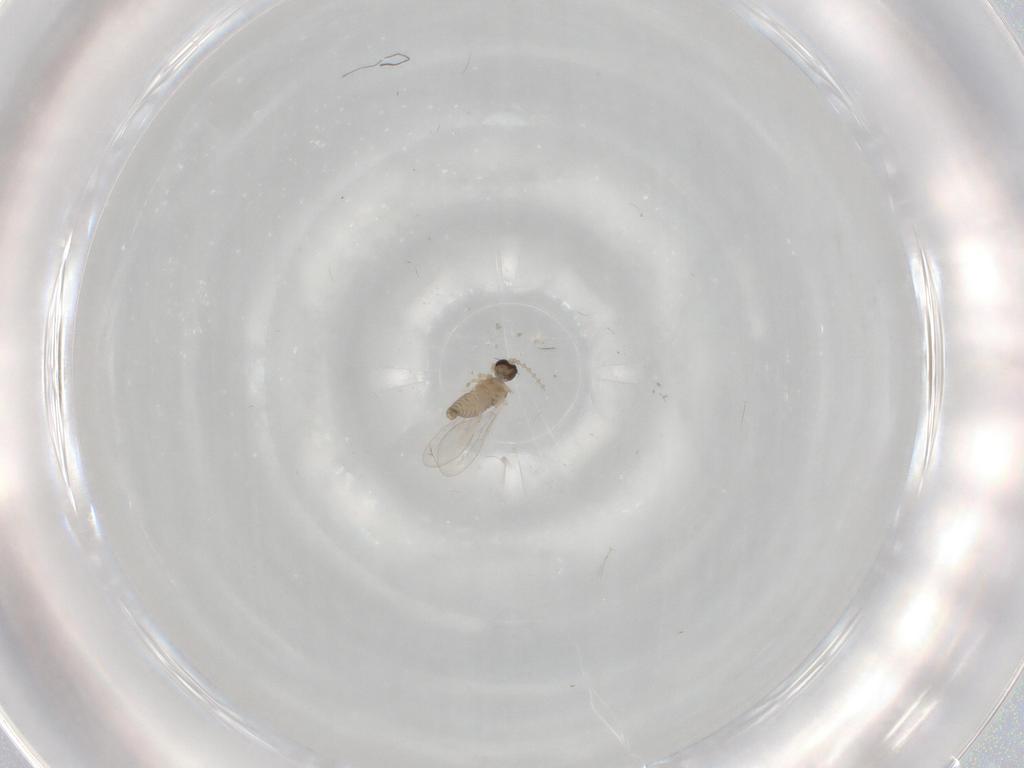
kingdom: Animalia
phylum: Arthropoda
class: Insecta
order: Diptera
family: Cecidomyiidae
